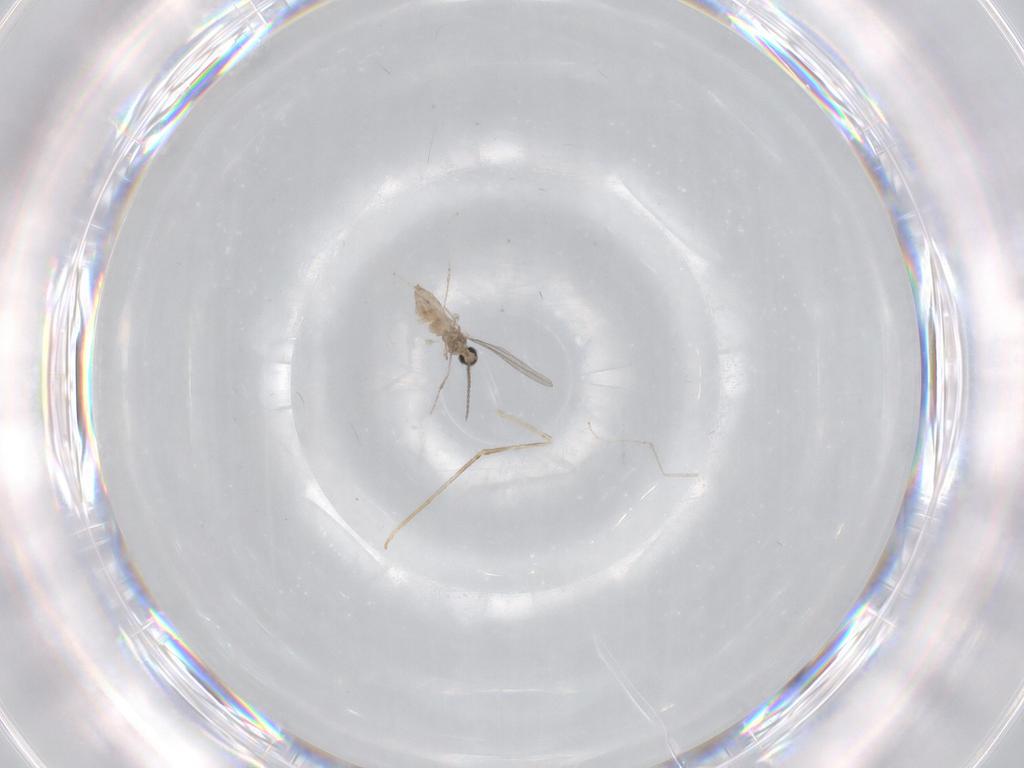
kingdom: Animalia
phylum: Arthropoda
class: Insecta
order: Diptera
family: Cecidomyiidae
